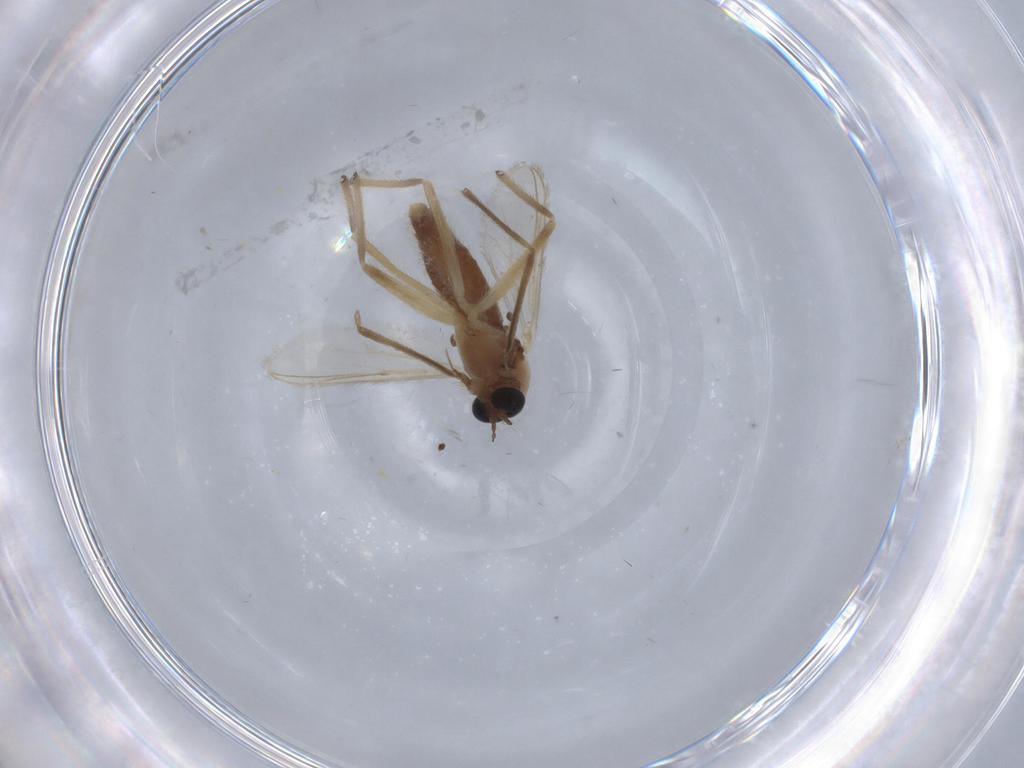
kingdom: Animalia
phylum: Arthropoda
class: Insecta
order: Diptera
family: Chironomidae
